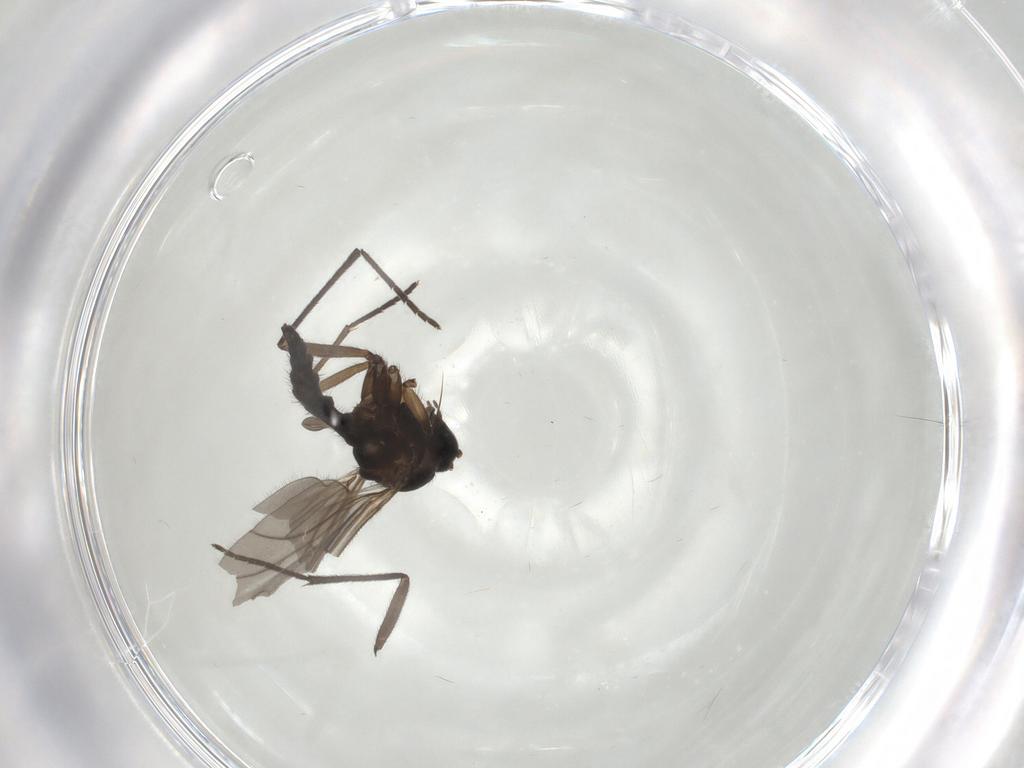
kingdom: Animalia
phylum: Arthropoda
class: Insecta
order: Diptera
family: Sciaridae
